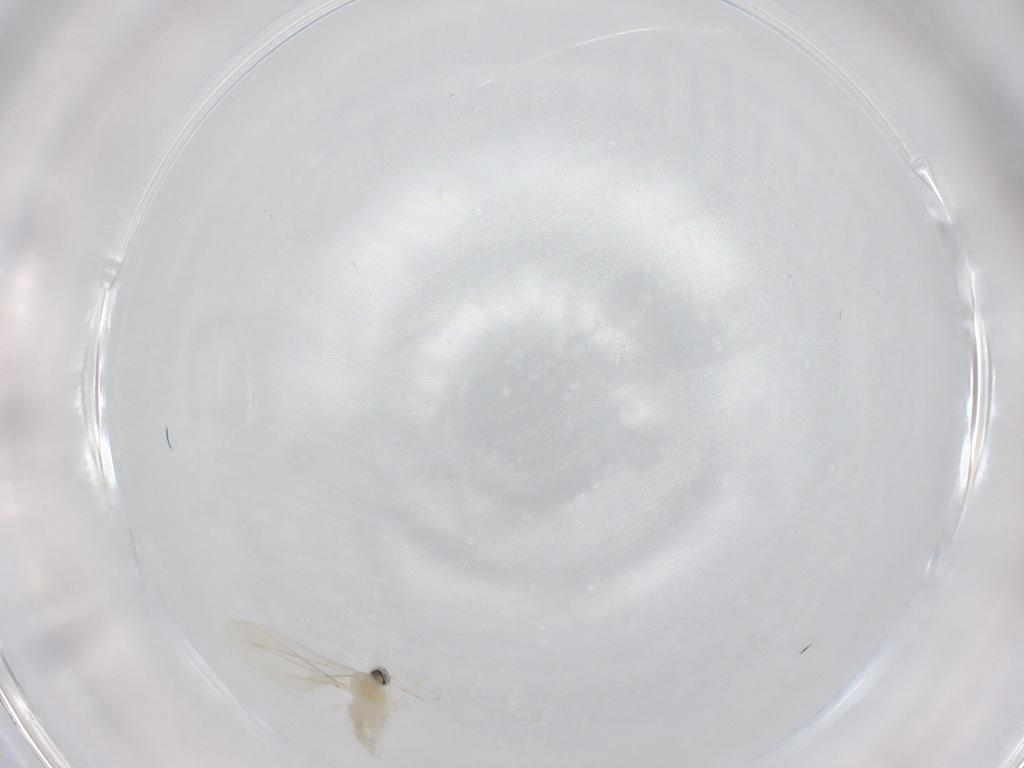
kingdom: Animalia
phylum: Arthropoda
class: Insecta
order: Diptera
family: Cecidomyiidae
